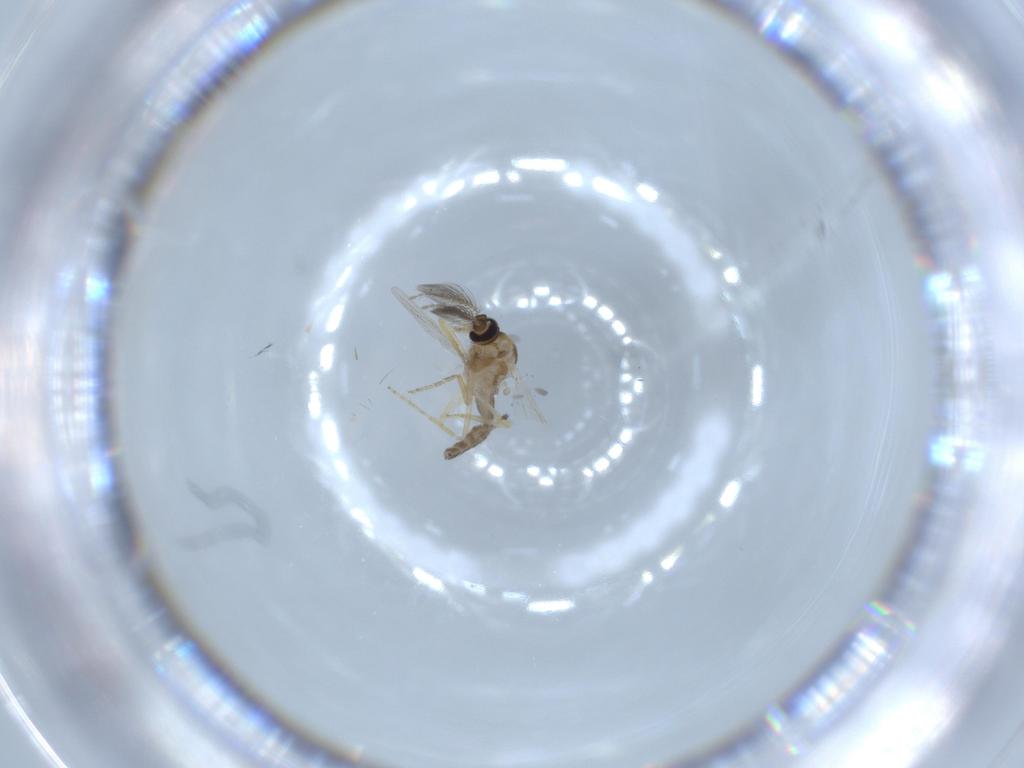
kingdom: Animalia
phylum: Arthropoda
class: Insecta
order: Diptera
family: Ceratopogonidae
